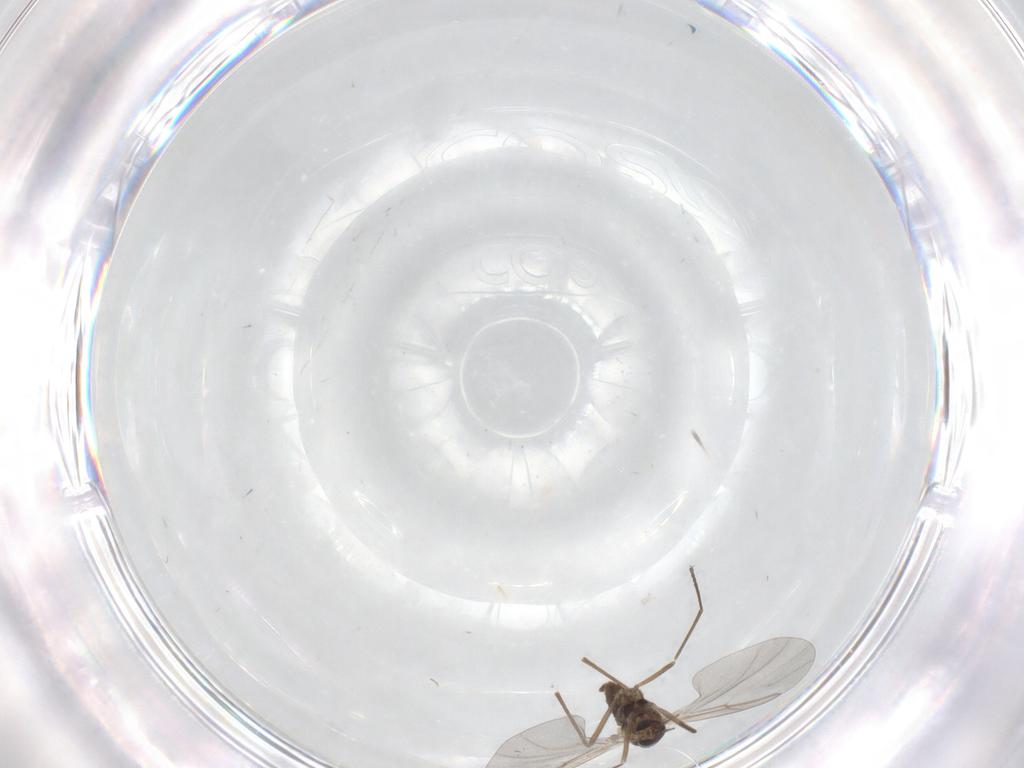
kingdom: Animalia
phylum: Arthropoda
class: Insecta
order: Diptera
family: Cecidomyiidae
